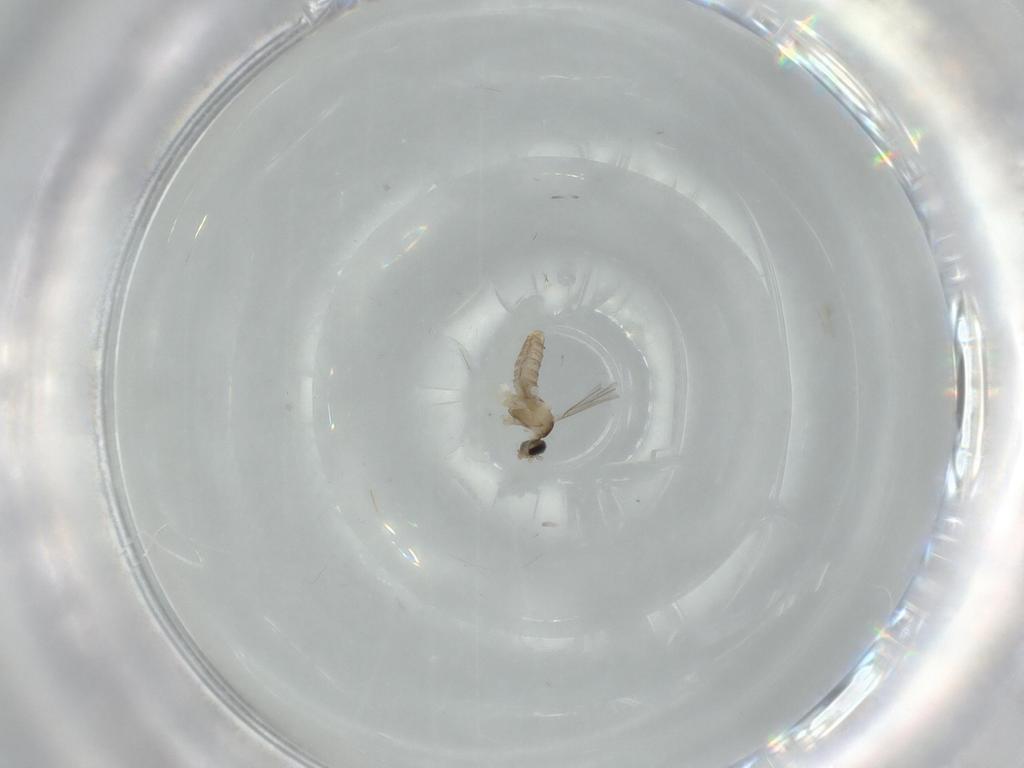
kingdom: Animalia
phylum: Arthropoda
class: Insecta
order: Diptera
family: Cecidomyiidae
